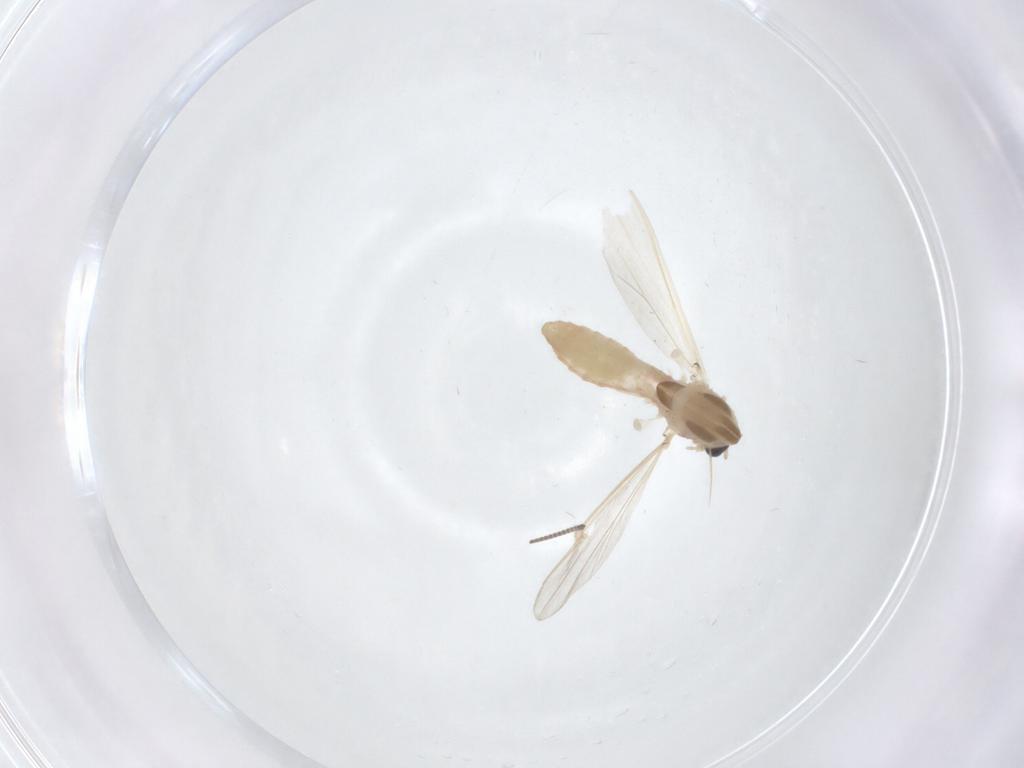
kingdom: Animalia
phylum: Arthropoda
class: Insecta
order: Diptera
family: Chironomidae
